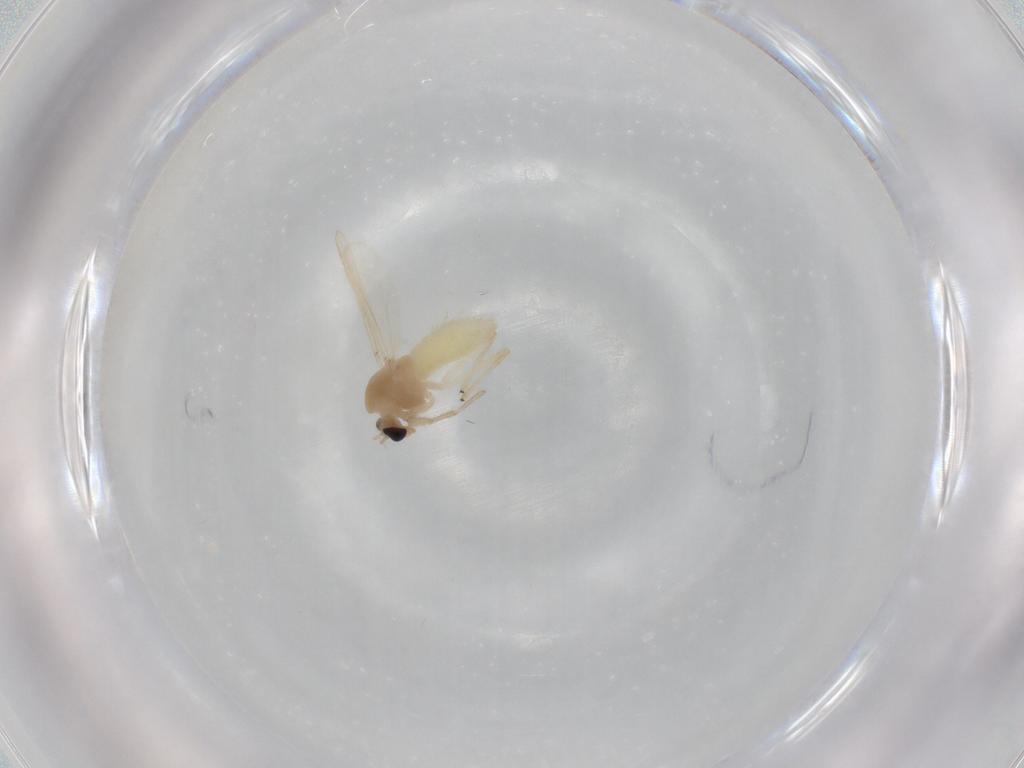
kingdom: Animalia
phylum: Arthropoda
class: Insecta
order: Diptera
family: Chironomidae
